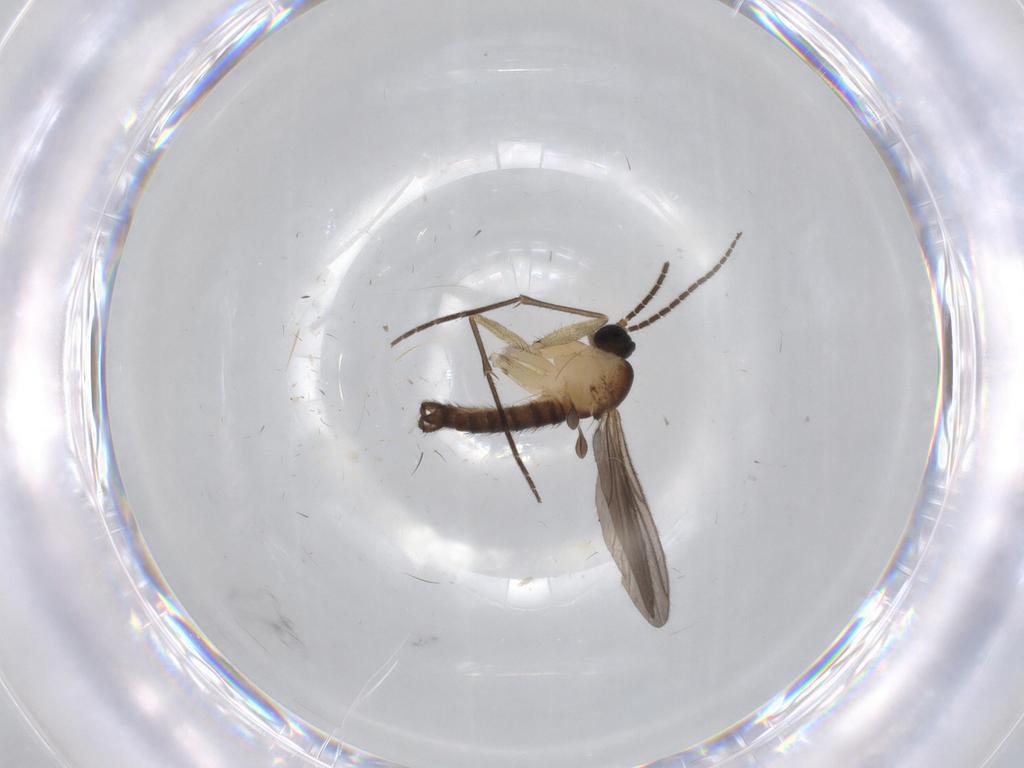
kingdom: Animalia
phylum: Arthropoda
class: Insecta
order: Diptera
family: Sciaridae
